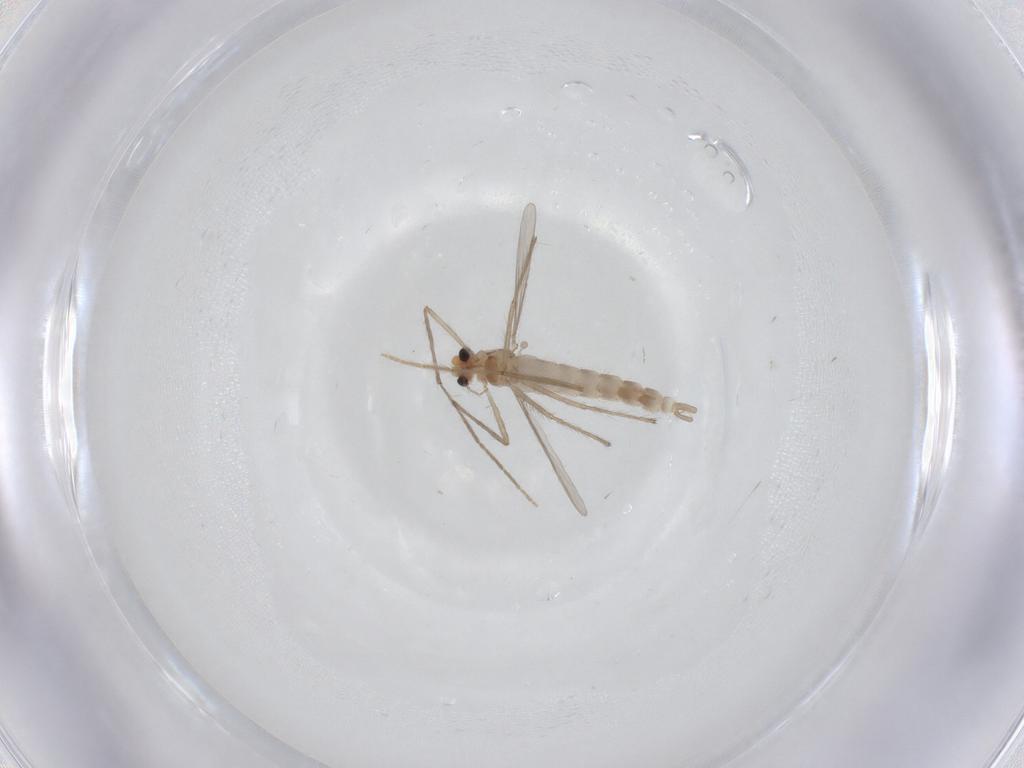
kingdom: Animalia
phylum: Arthropoda
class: Insecta
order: Diptera
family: Chironomidae
